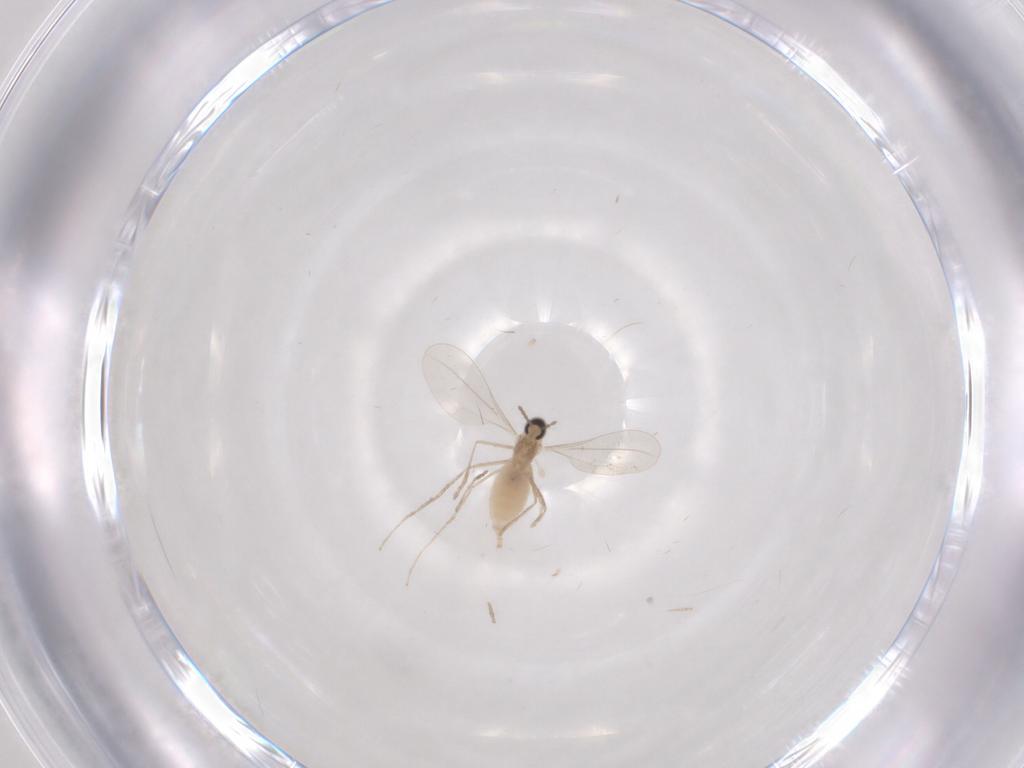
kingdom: Animalia
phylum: Arthropoda
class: Insecta
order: Diptera
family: Cecidomyiidae
